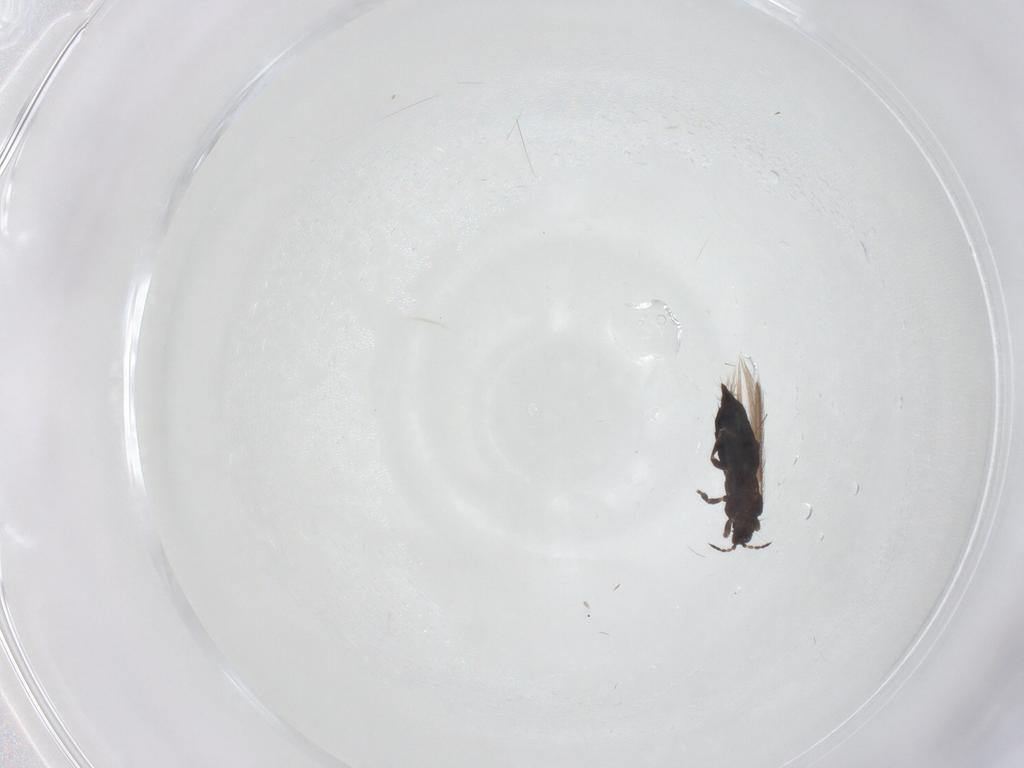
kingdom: Animalia
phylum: Arthropoda
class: Insecta
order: Thysanoptera
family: Thripidae
